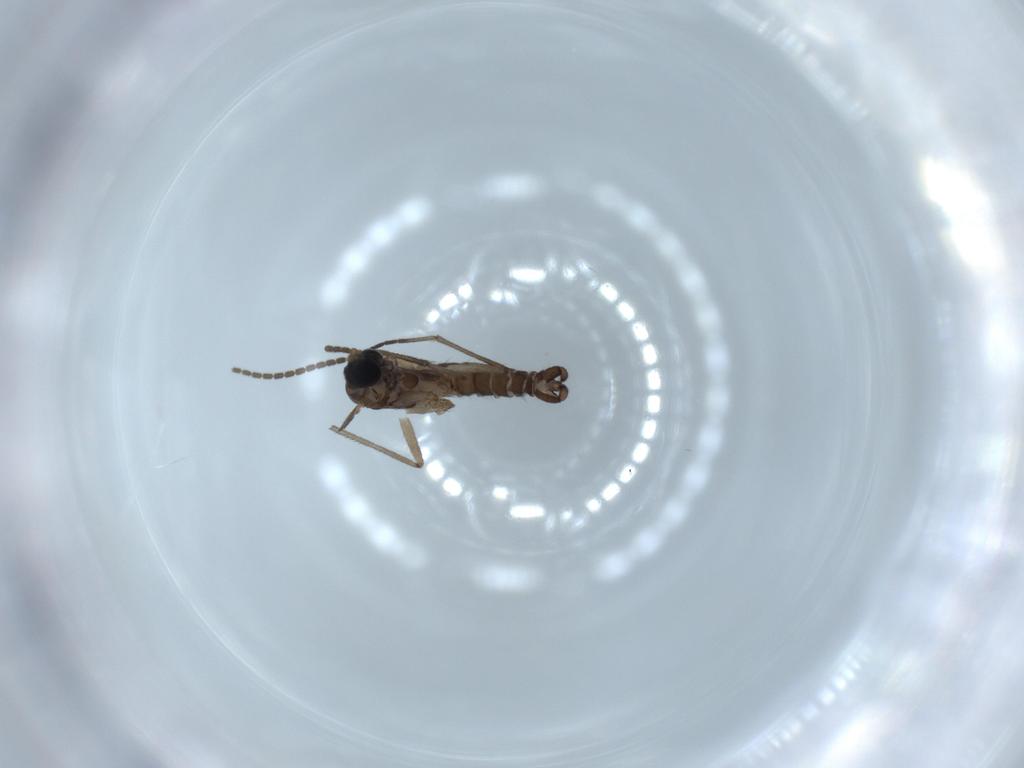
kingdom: Animalia
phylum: Arthropoda
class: Insecta
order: Diptera
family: Sciaridae
